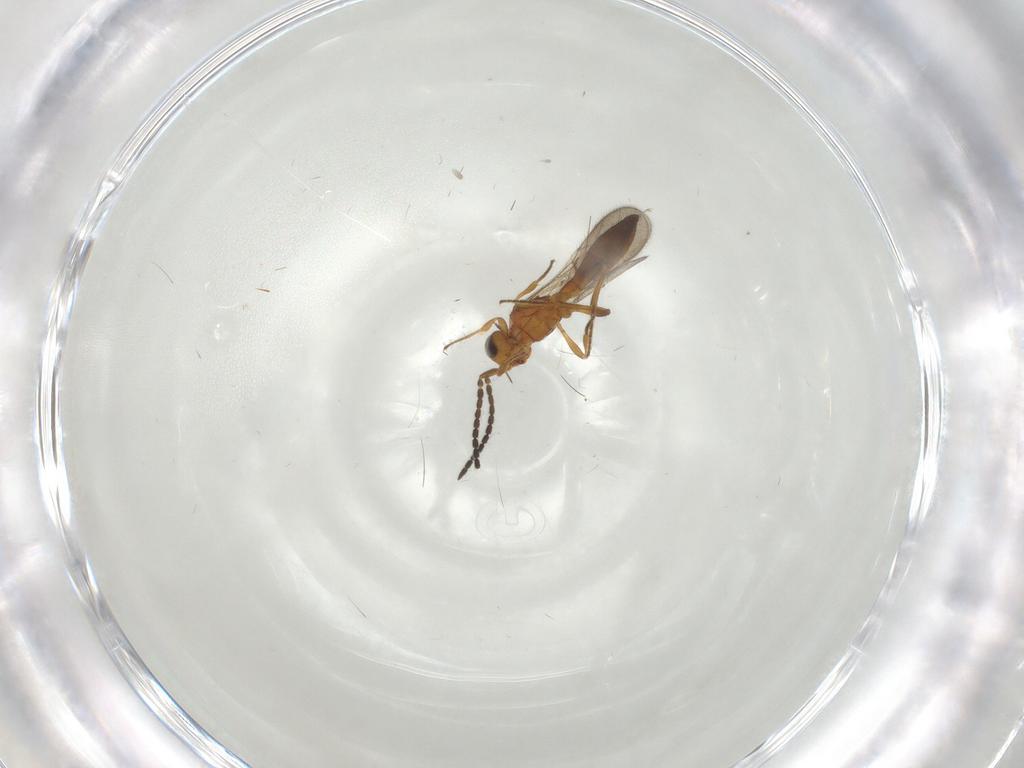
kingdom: Animalia
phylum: Arthropoda
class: Insecta
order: Hymenoptera
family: Scelionidae
